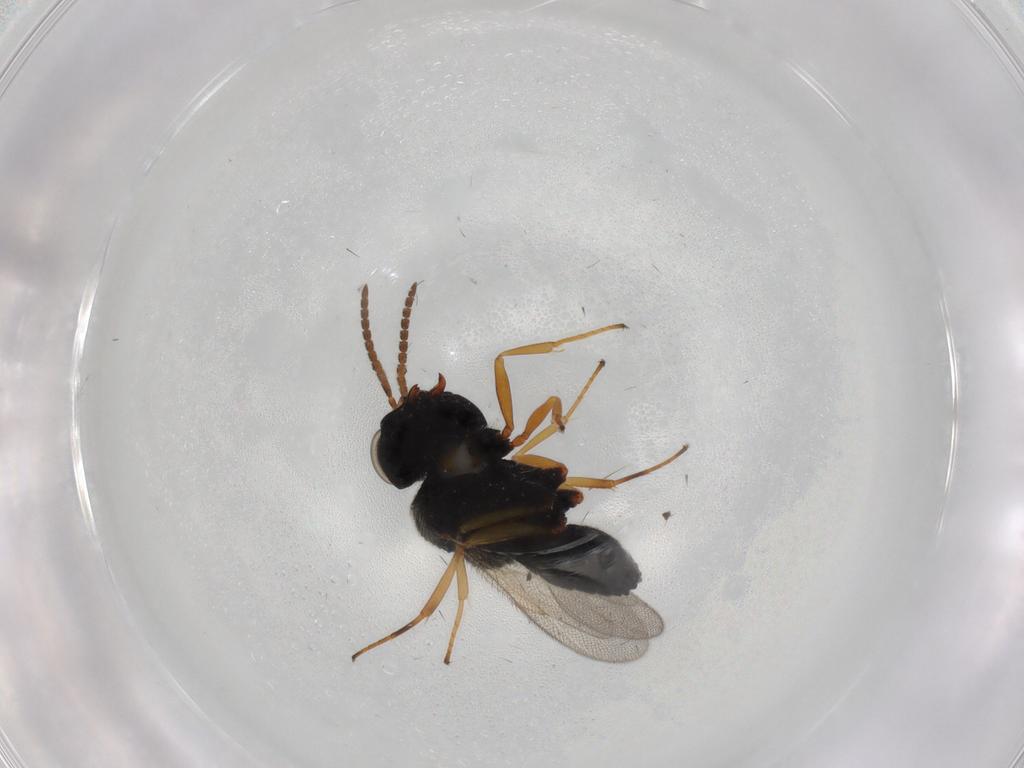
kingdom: Animalia
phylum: Arthropoda
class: Insecta
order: Hymenoptera
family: Scelionidae
